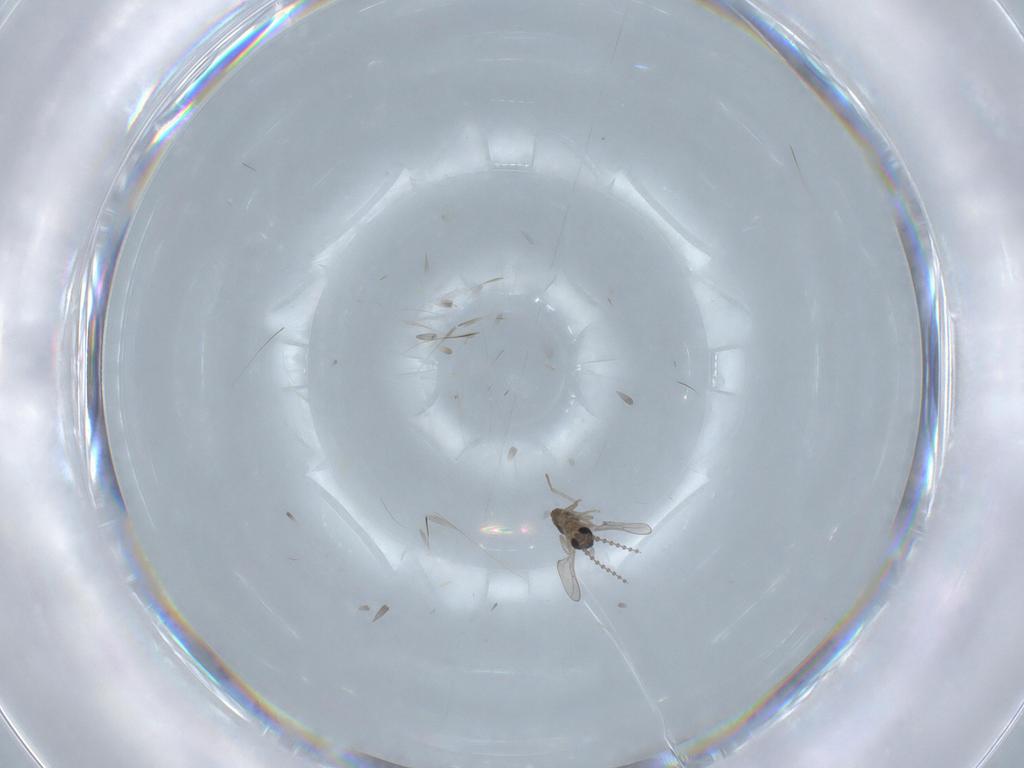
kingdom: Animalia
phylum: Arthropoda
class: Insecta
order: Diptera
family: Cecidomyiidae
